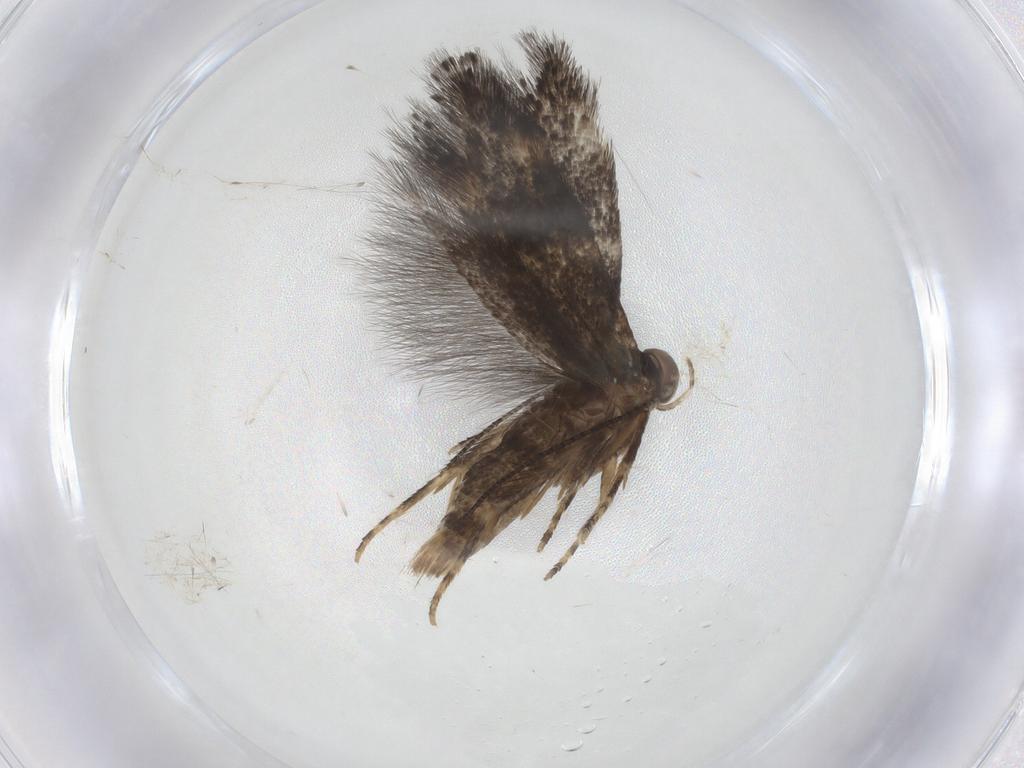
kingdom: Animalia
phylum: Arthropoda
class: Insecta
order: Lepidoptera
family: Elachistidae
